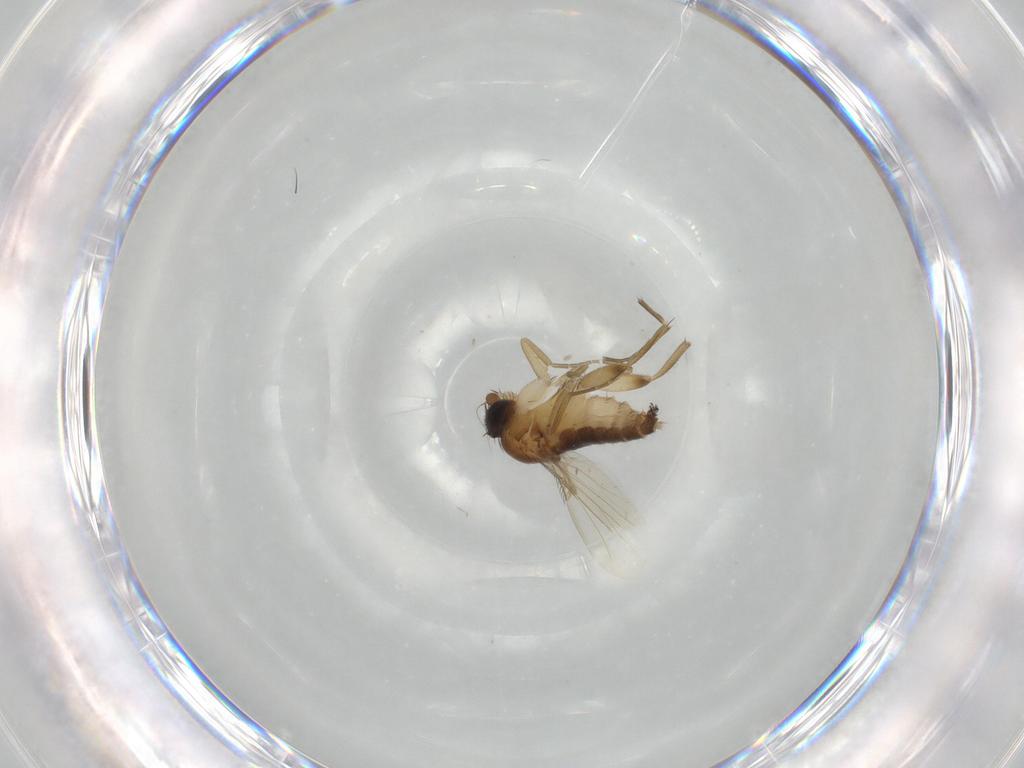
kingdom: Animalia
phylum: Arthropoda
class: Insecta
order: Diptera
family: Phoridae
